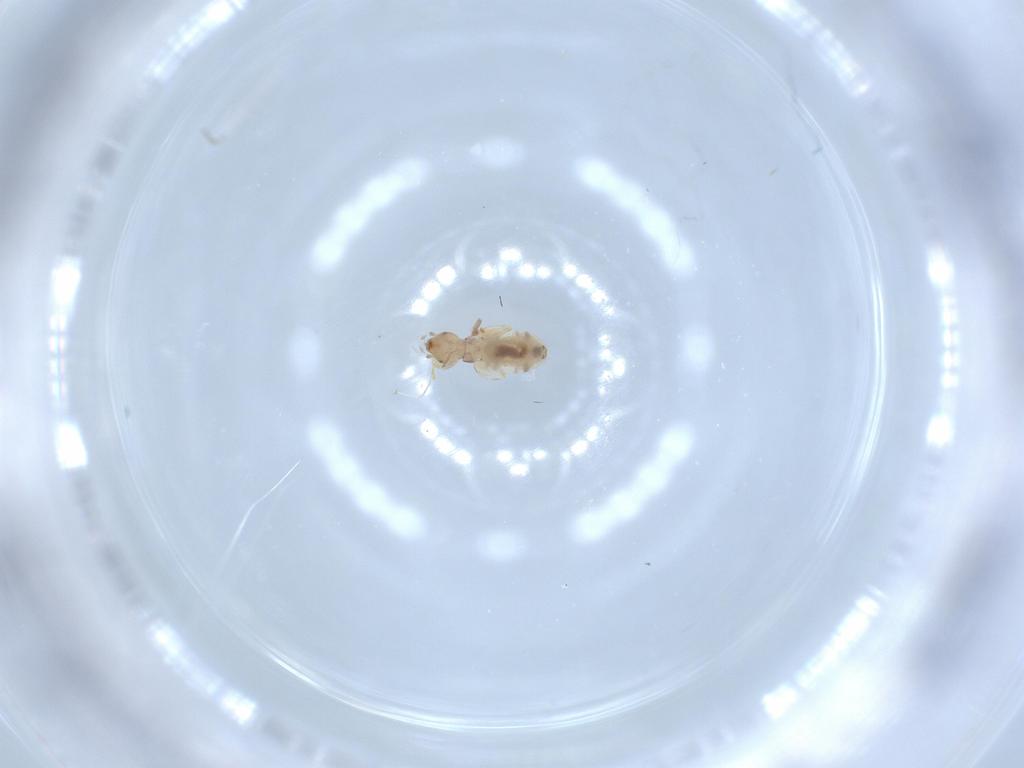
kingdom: Animalia
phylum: Arthropoda
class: Insecta
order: Psocodea
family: Liposcelididae
